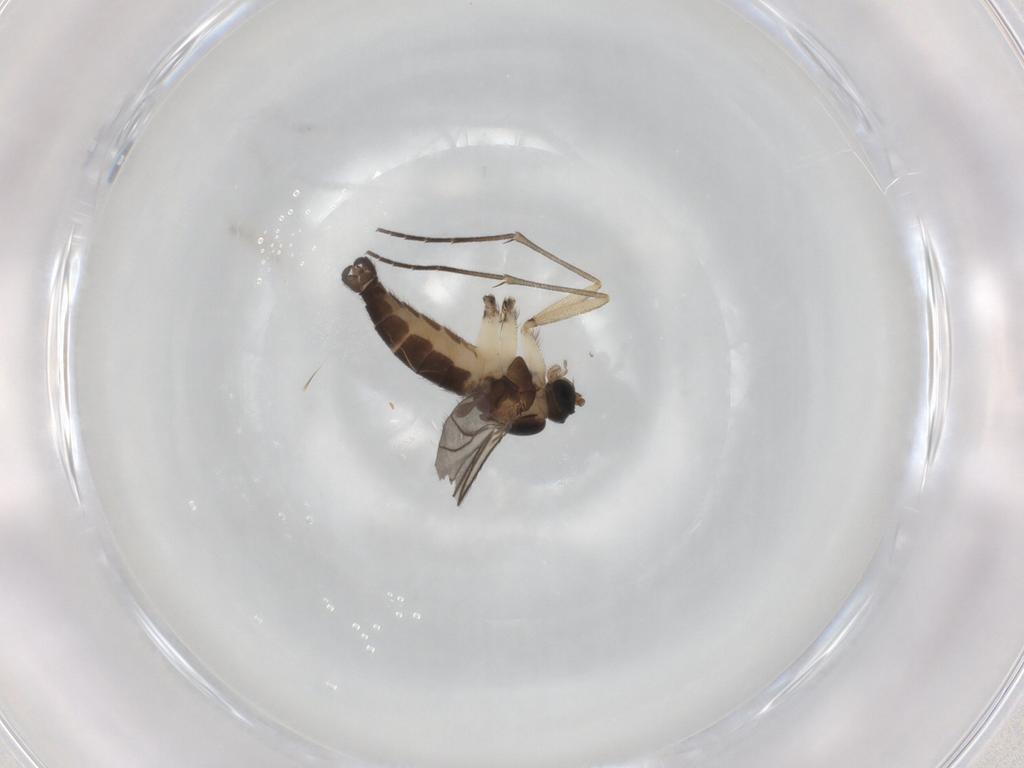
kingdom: Animalia
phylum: Arthropoda
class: Insecta
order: Diptera
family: Sciaridae
